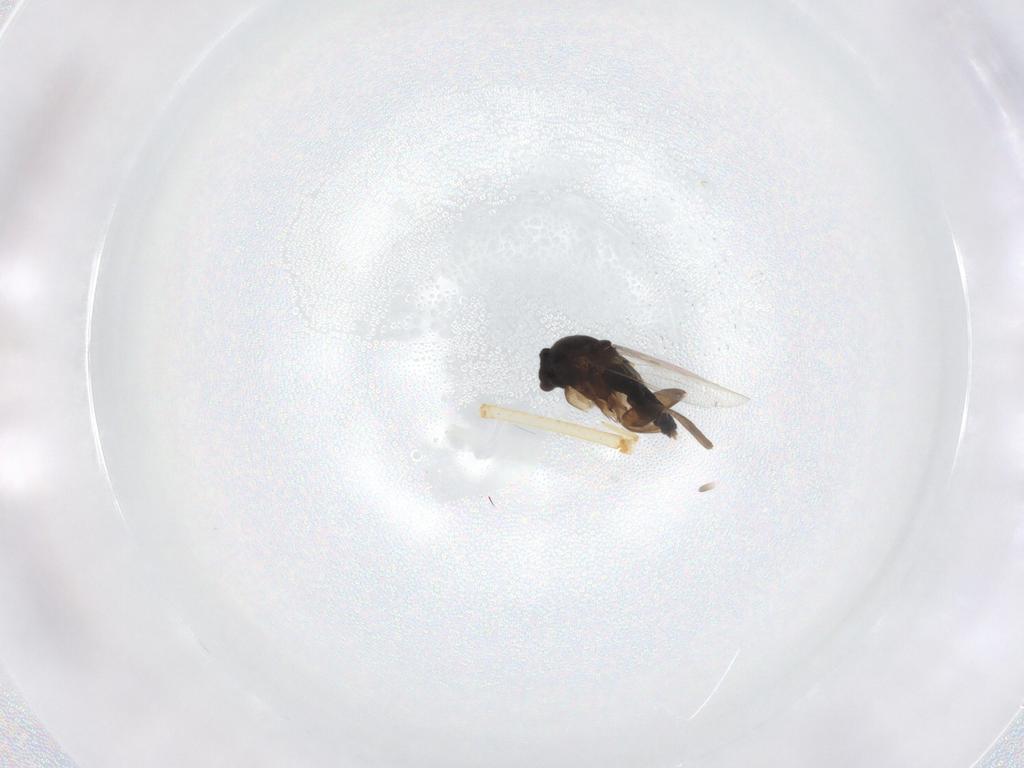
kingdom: Animalia
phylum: Arthropoda
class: Insecta
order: Diptera
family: Phoridae
